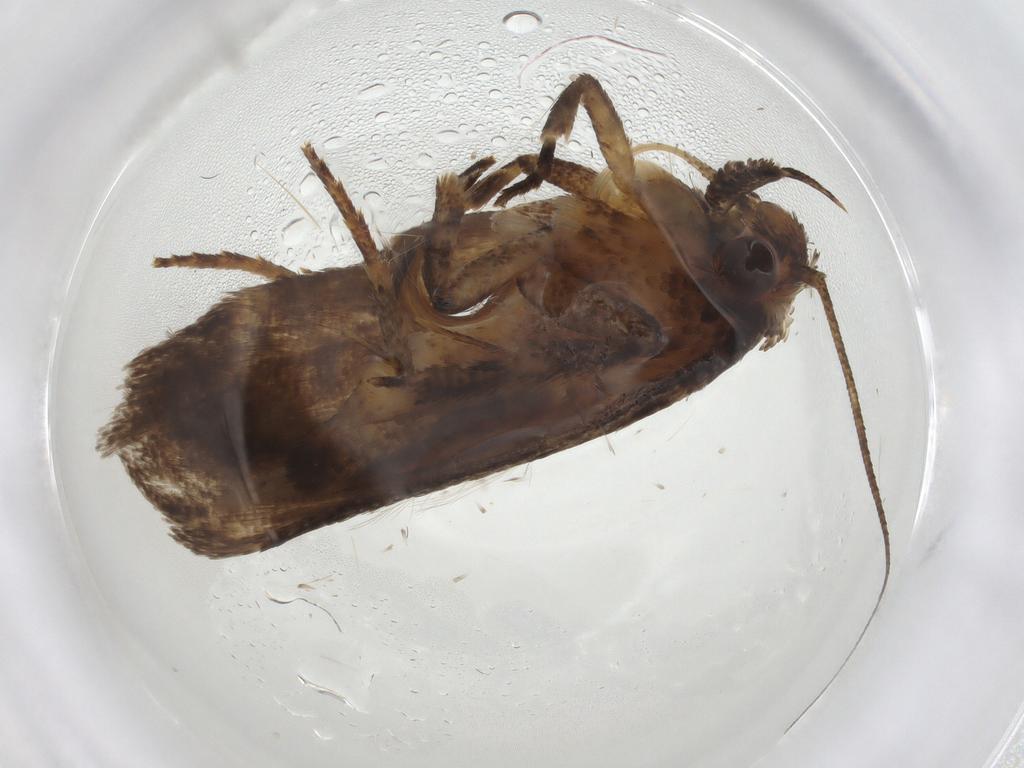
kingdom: Animalia
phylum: Arthropoda
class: Insecta
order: Lepidoptera
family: Gelechiidae
